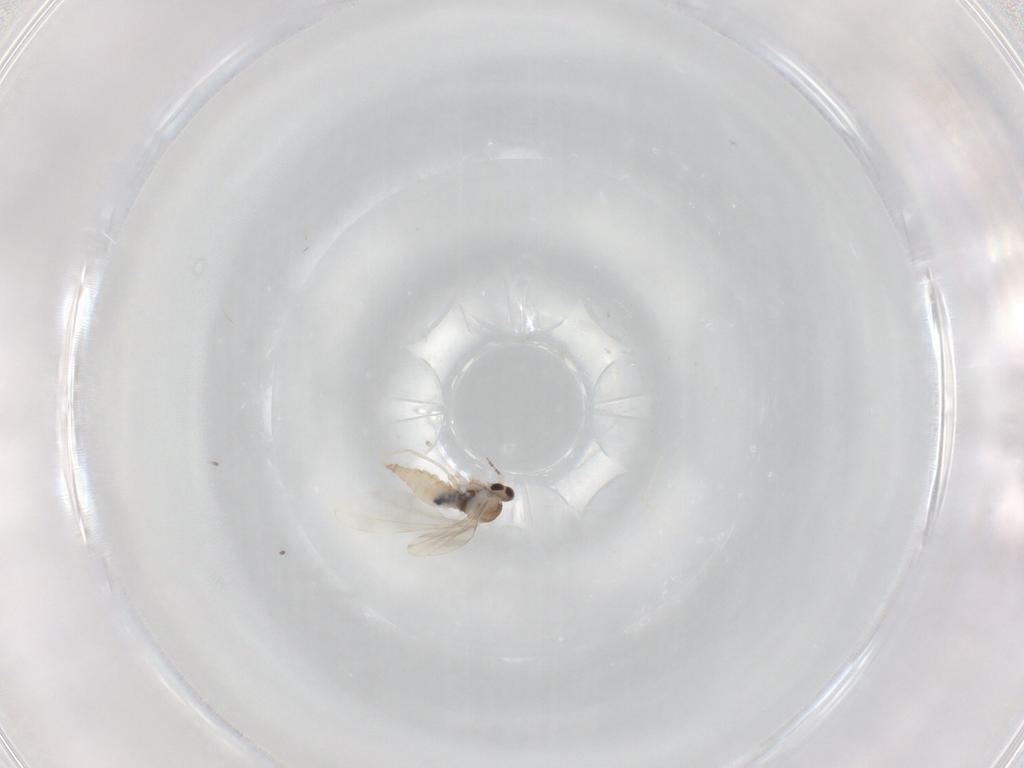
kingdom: Animalia
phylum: Arthropoda
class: Insecta
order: Diptera
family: Cecidomyiidae
